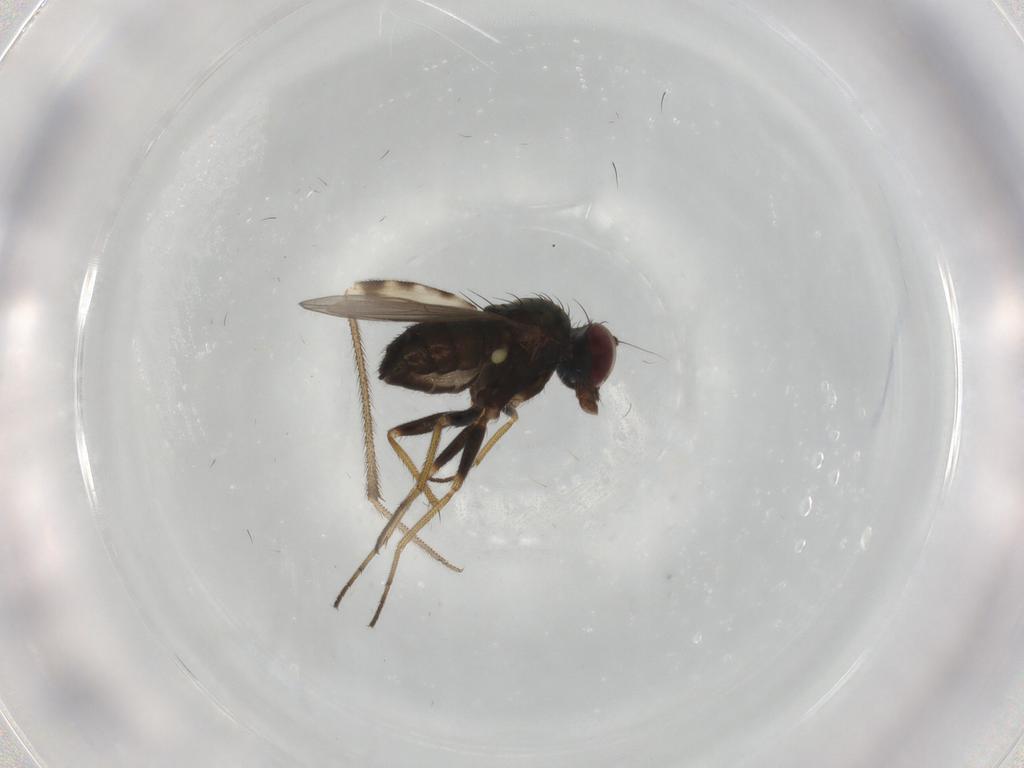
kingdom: Animalia
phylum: Arthropoda
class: Insecta
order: Diptera
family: Dolichopodidae
